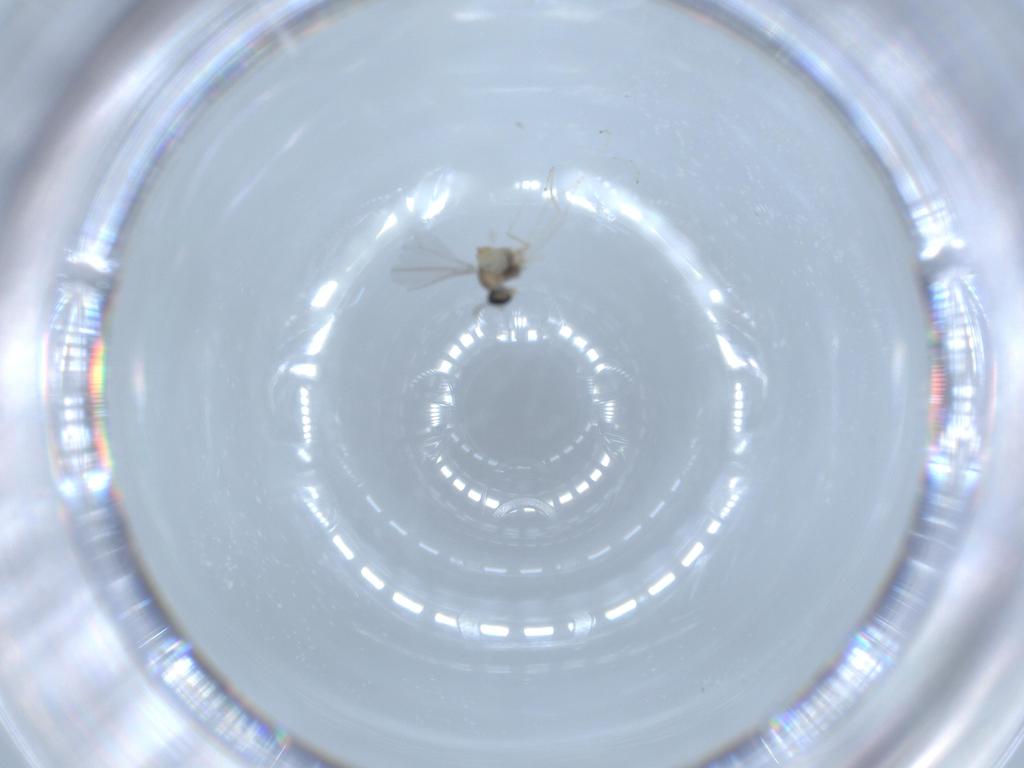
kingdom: Animalia
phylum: Arthropoda
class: Insecta
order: Diptera
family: Cecidomyiidae
